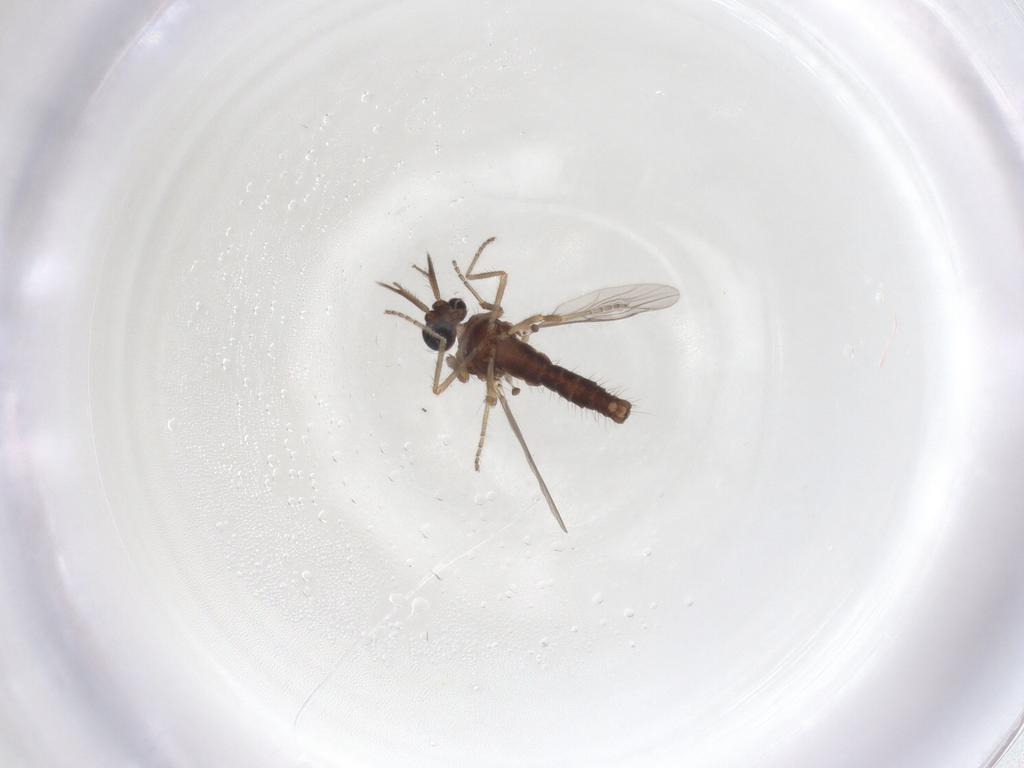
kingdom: Animalia
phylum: Arthropoda
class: Insecta
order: Diptera
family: Ceratopogonidae
